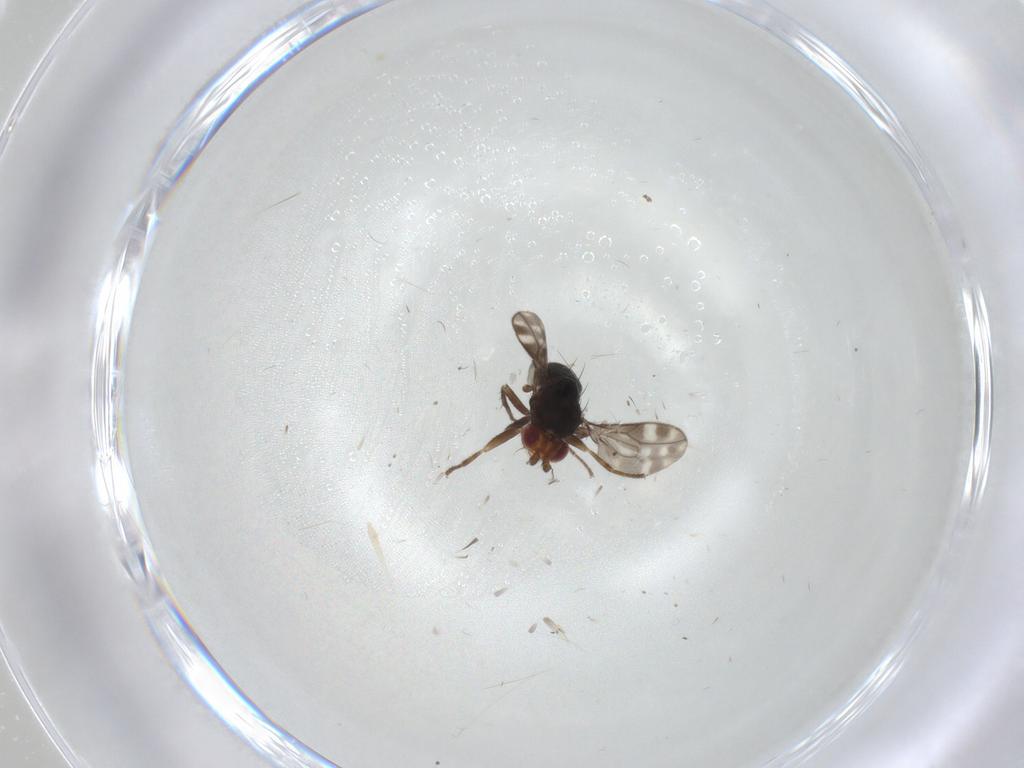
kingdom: Animalia
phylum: Arthropoda
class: Insecta
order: Diptera
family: Sphaeroceridae
